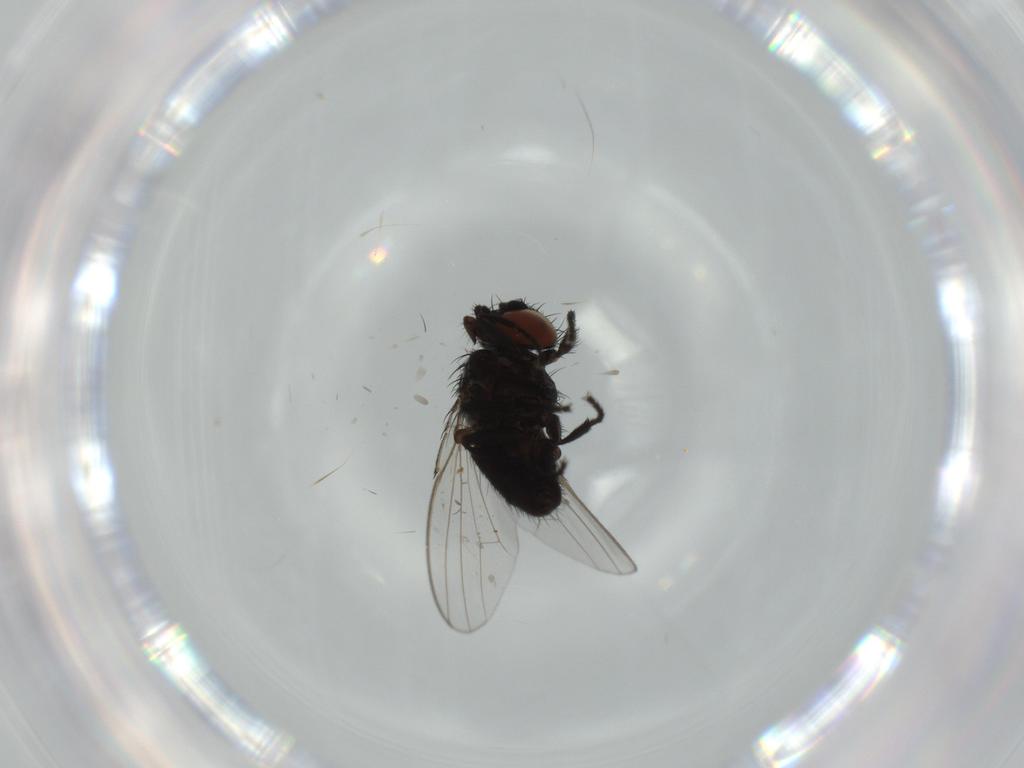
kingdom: Animalia
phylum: Arthropoda
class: Insecta
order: Diptera
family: Milichiidae
